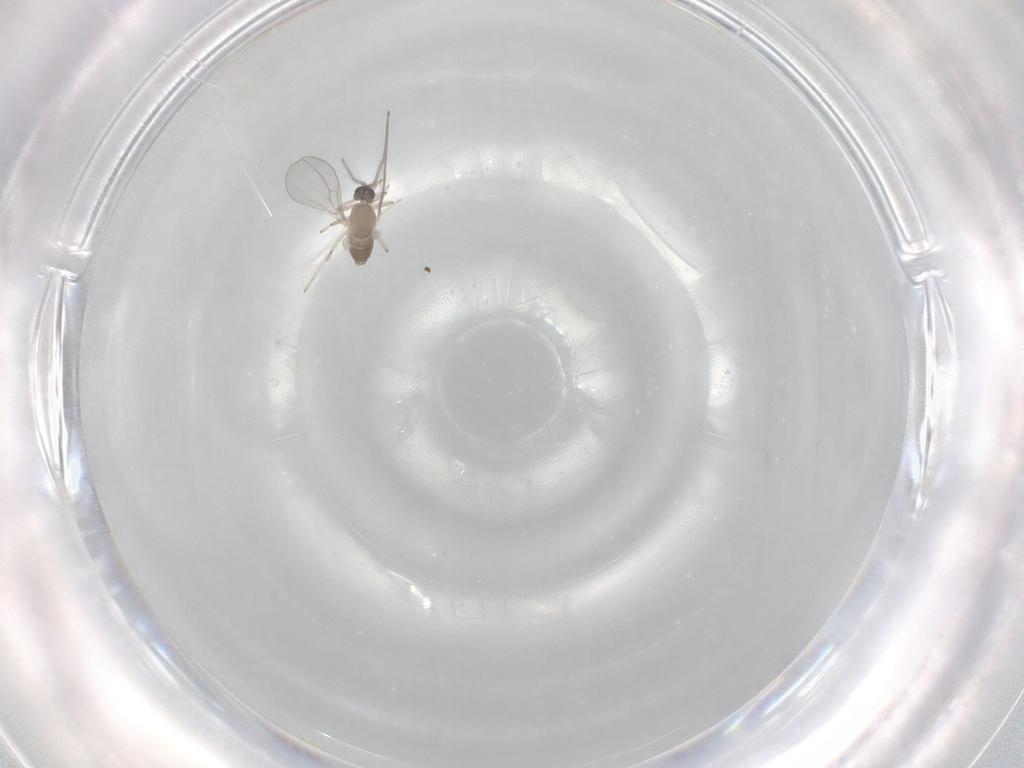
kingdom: Animalia
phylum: Arthropoda
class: Insecta
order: Diptera
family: Cecidomyiidae
